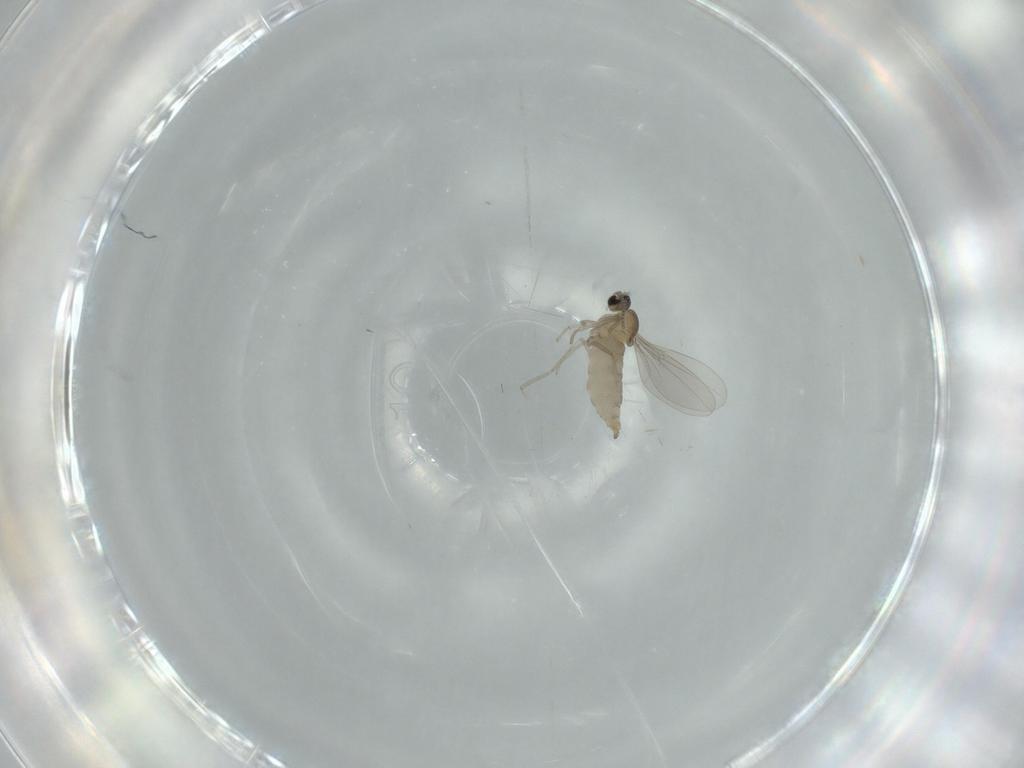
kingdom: Animalia
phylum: Arthropoda
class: Insecta
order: Diptera
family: Cecidomyiidae
